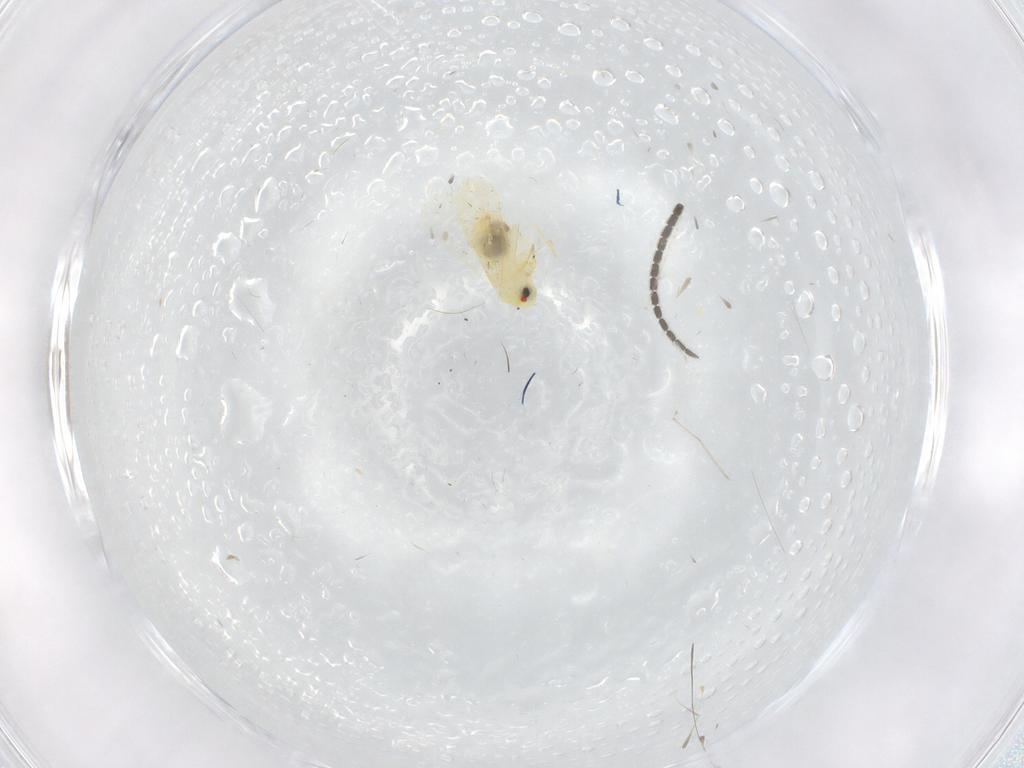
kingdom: Animalia
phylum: Arthropoda
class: Insecta
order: Hemiptera
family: Aleyrodidae
